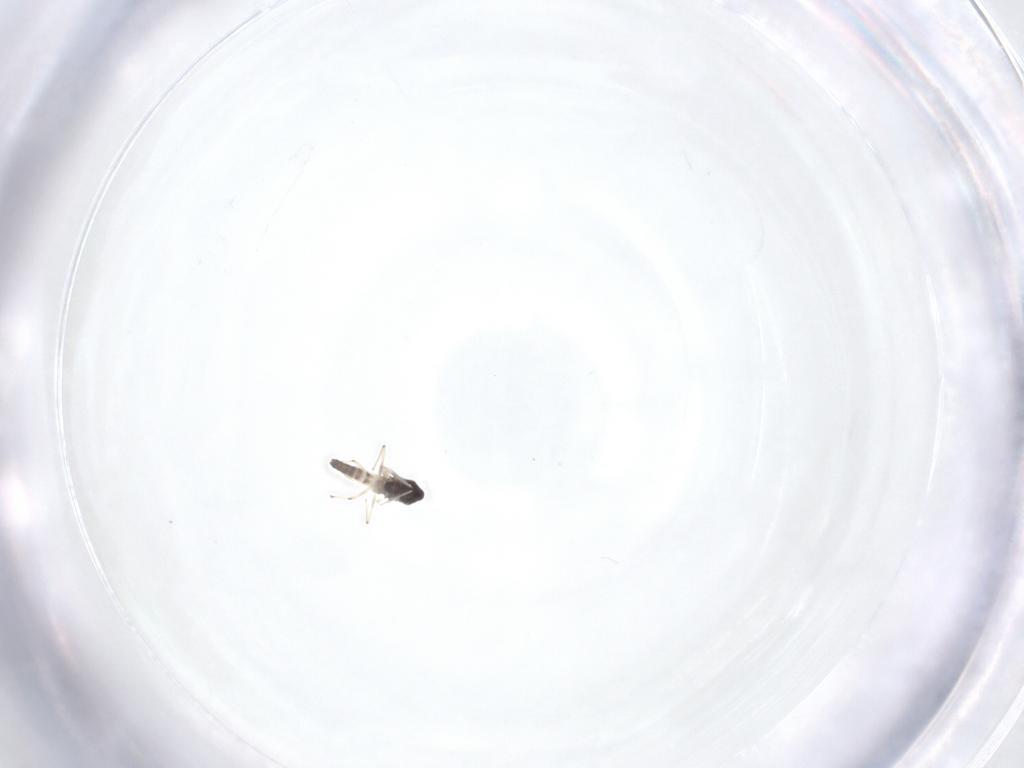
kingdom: Animalia
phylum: Arthropoda
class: Insecta
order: Diptera
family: Chironomidae
